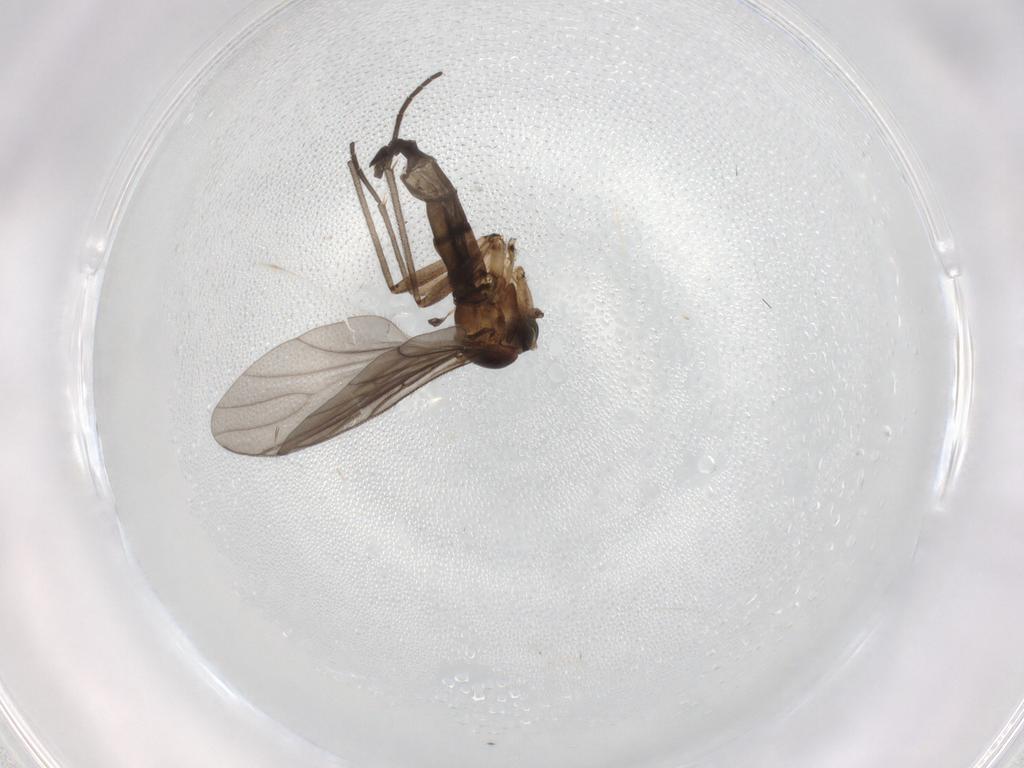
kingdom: Animalia
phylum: Arthropoda
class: Insecta
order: Diptera
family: Sciaridae
